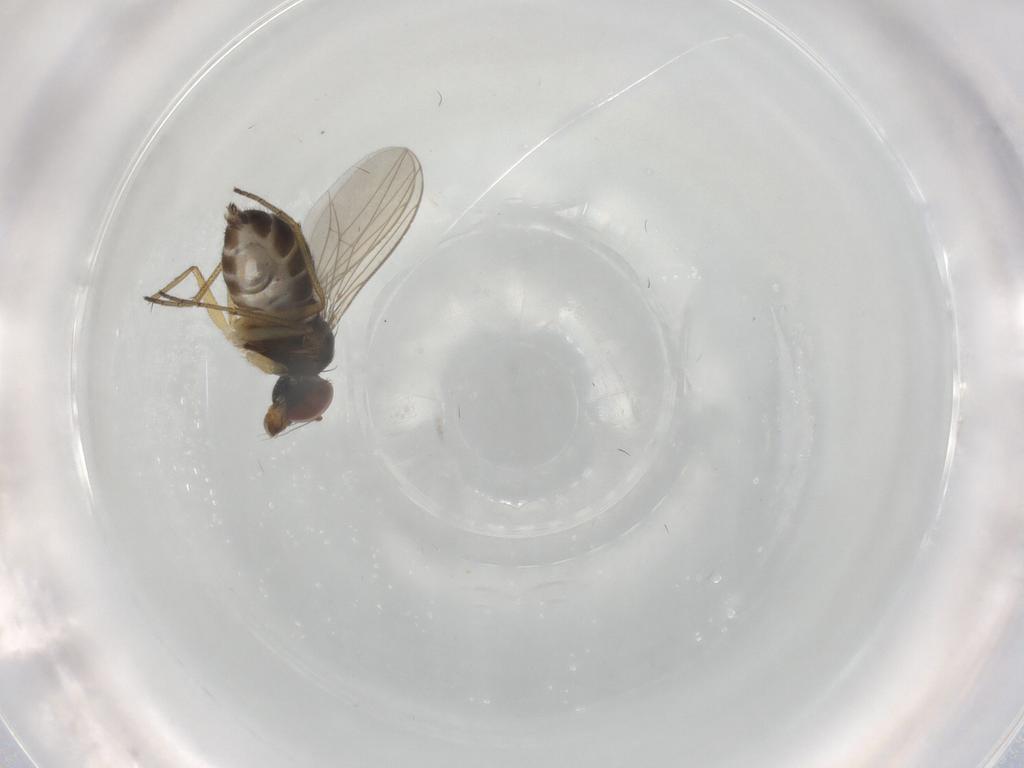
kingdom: Animalia
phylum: Arthropoda
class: Insecta
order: Diptera
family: Dolichopodidae
